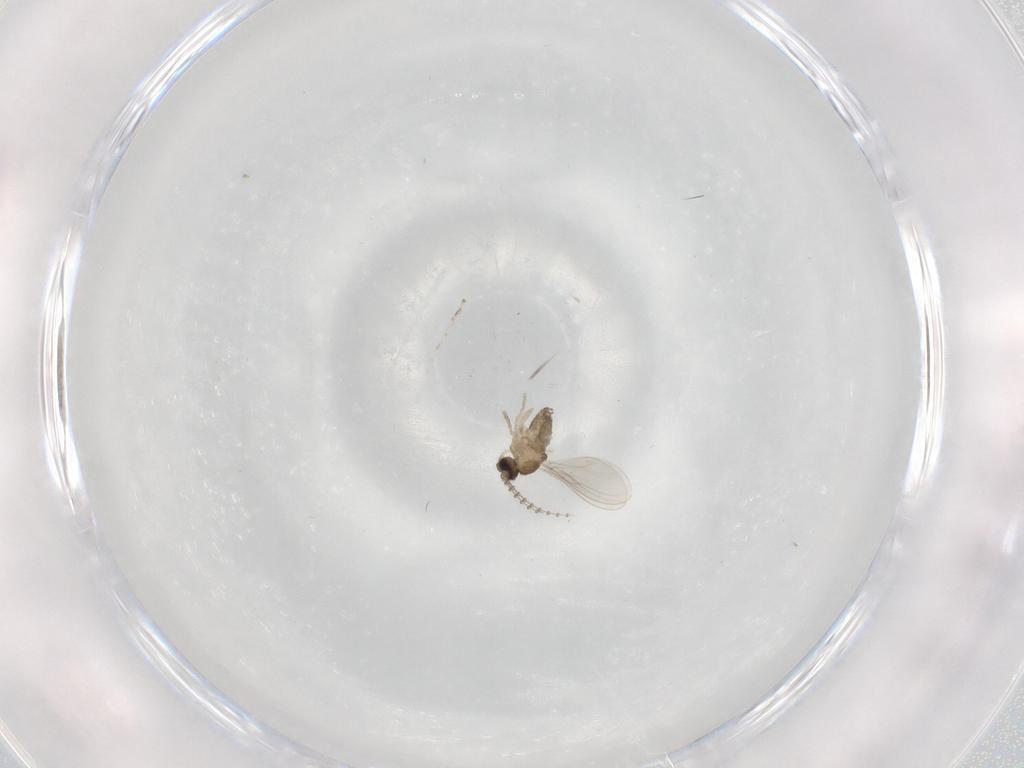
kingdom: Animalia
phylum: Arthropoda
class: Insecta
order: Diptera
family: Cecidomyiidae
